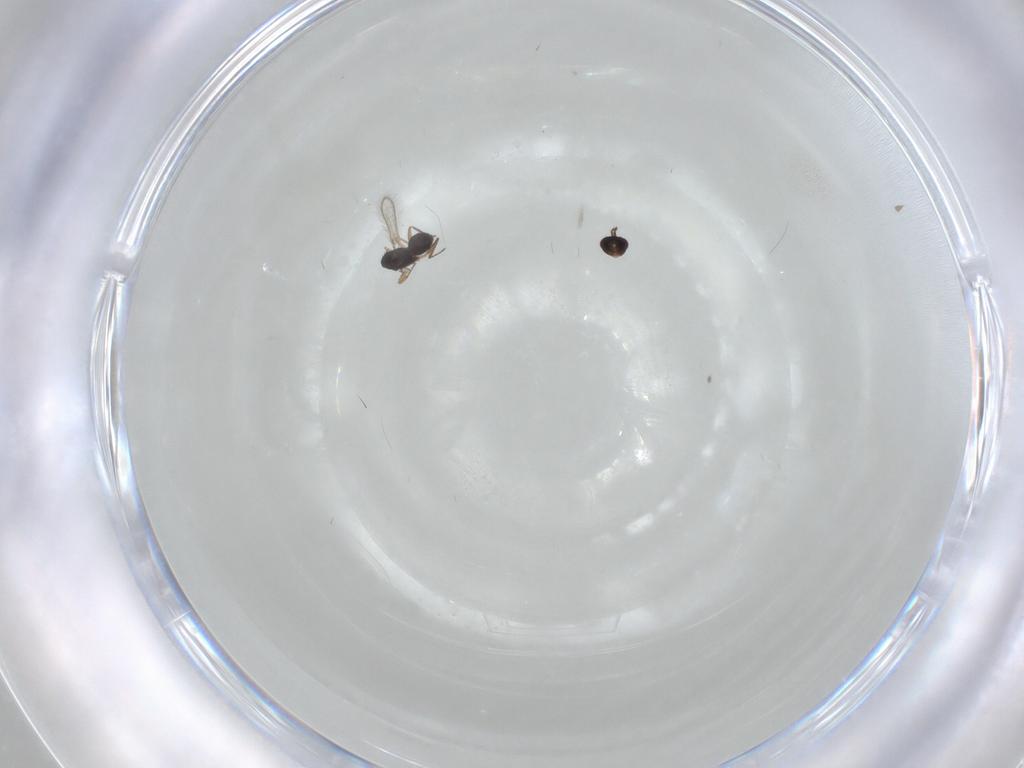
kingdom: Animalia
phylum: Arthropoda
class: Insecta
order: Hymenoptera
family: Mymaridae
